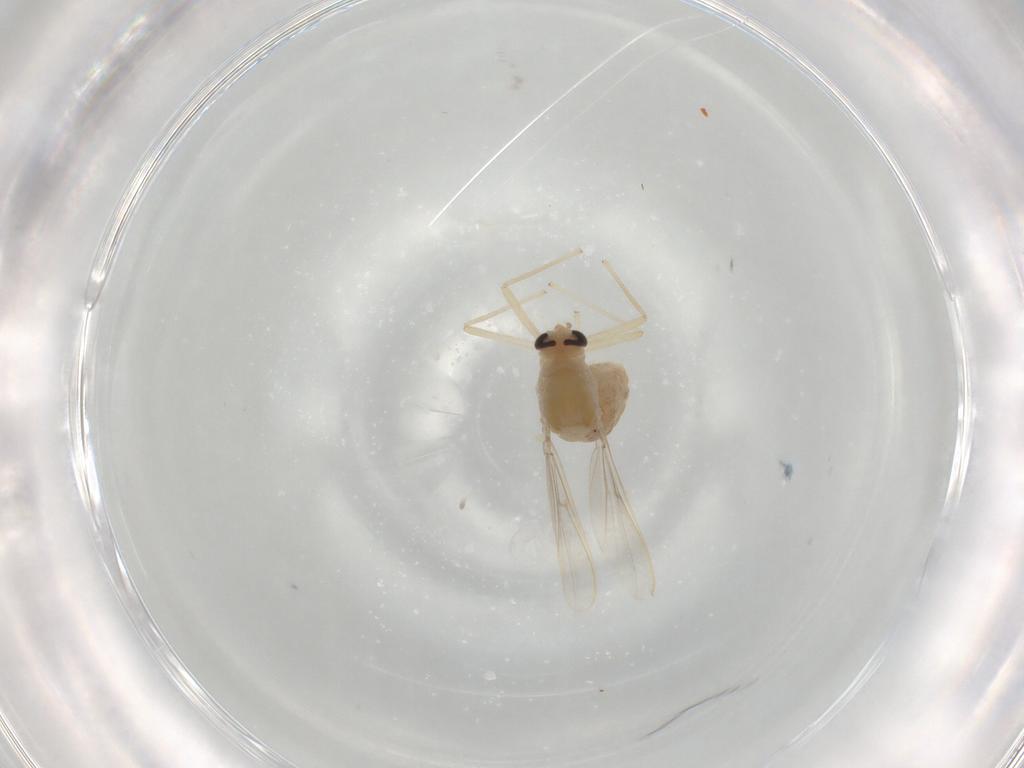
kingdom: Animalia
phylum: Arthropoda
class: Insecta
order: Diptera
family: Chironomidae
